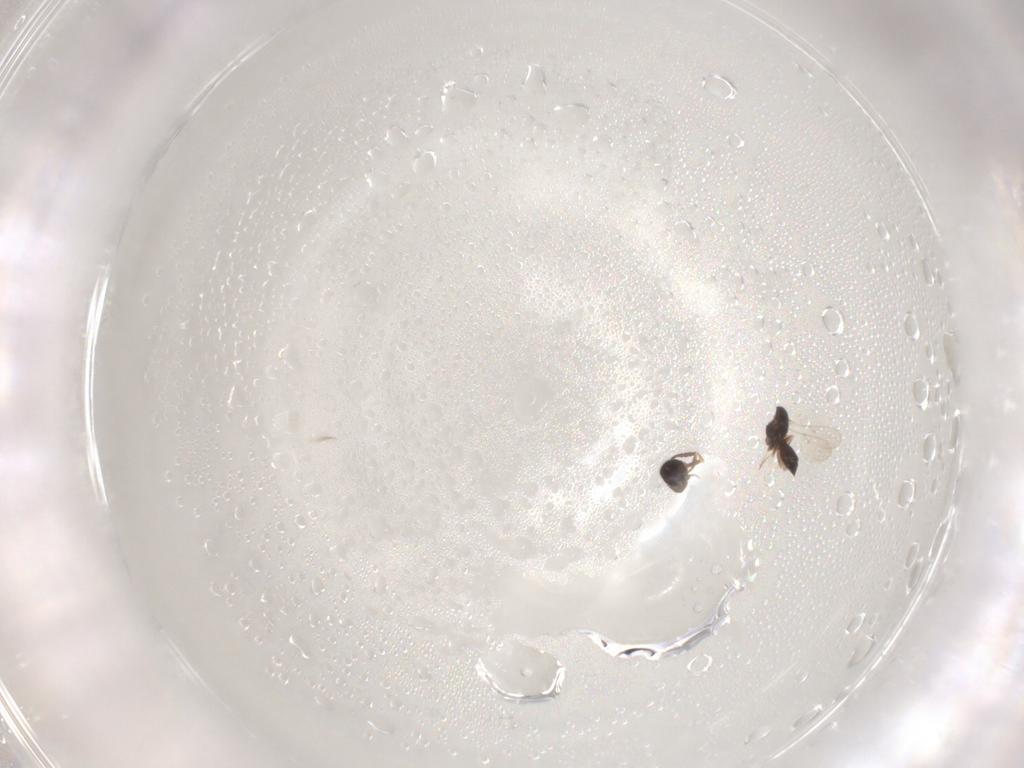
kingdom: Animalia
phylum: Arthropoda
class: Insecta
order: Hymenoptera
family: Scelionidae
